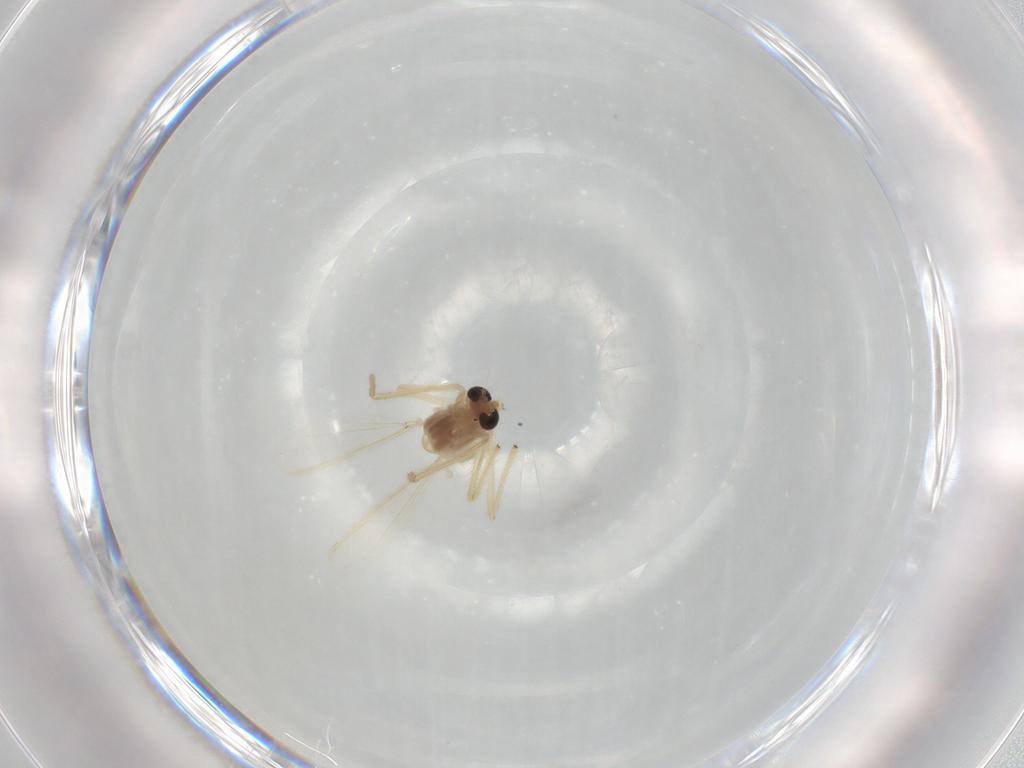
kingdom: Animalia
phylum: Arthropoda
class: Insecta
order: Diptera
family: Chironomidae
